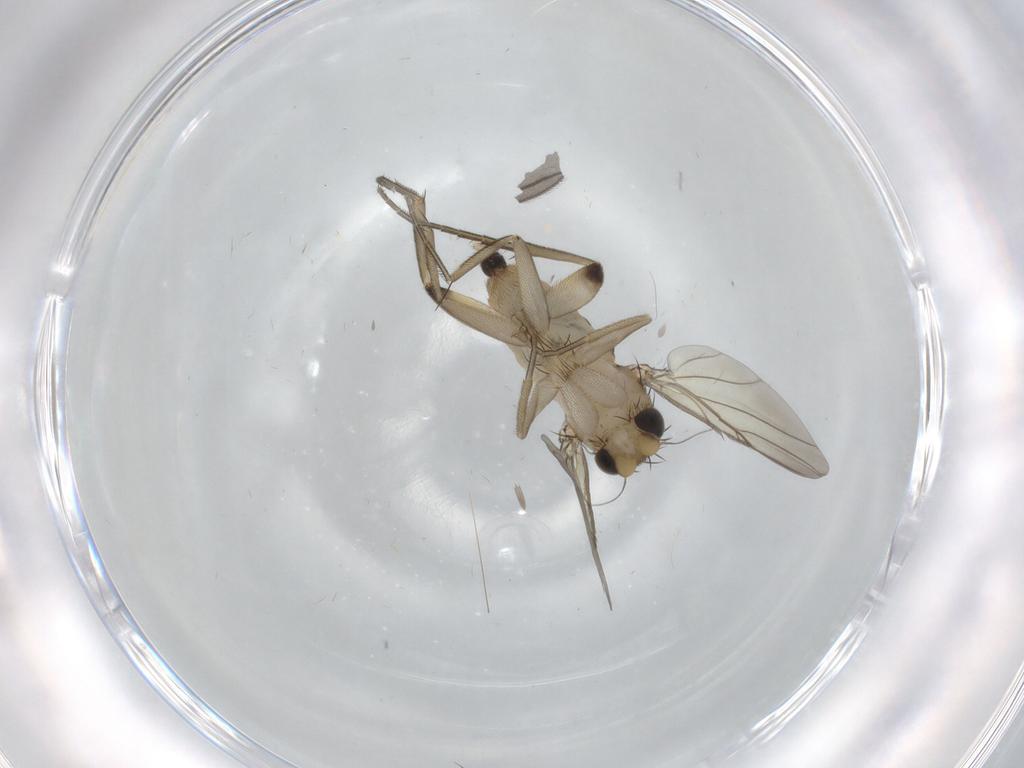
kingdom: Animalia
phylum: Arthropoda
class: Insecta
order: Diptera
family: Phoridae
